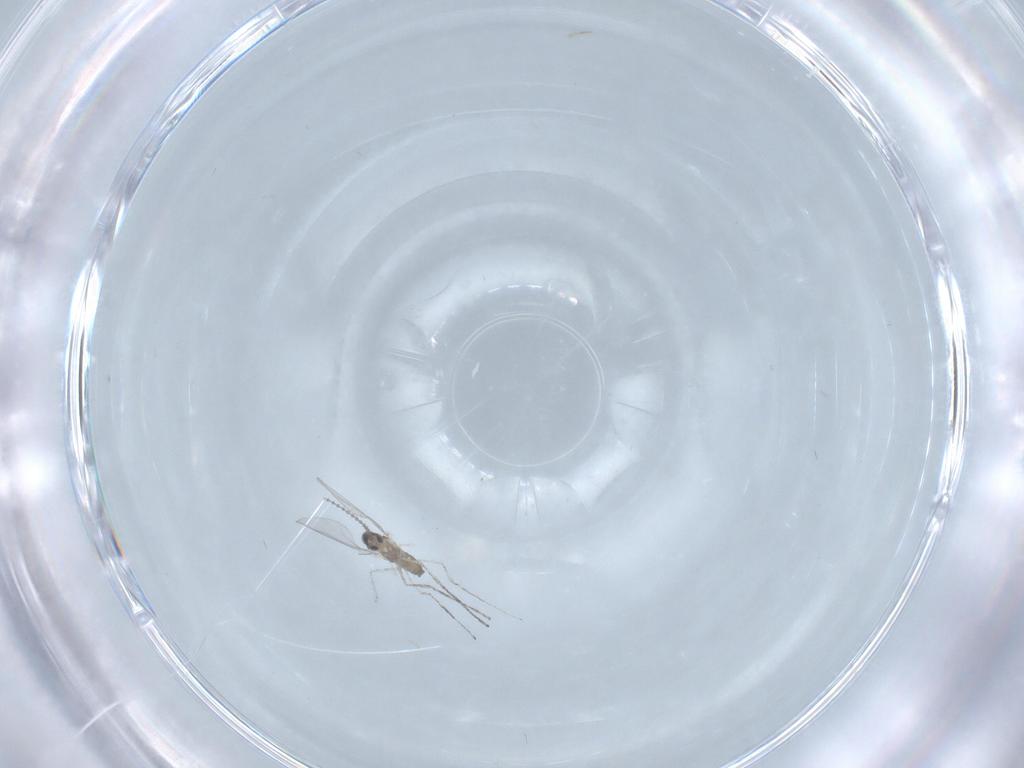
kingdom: Animalia
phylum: Arthropoda
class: Insecta
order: Diptera
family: Cecidomyiidae
